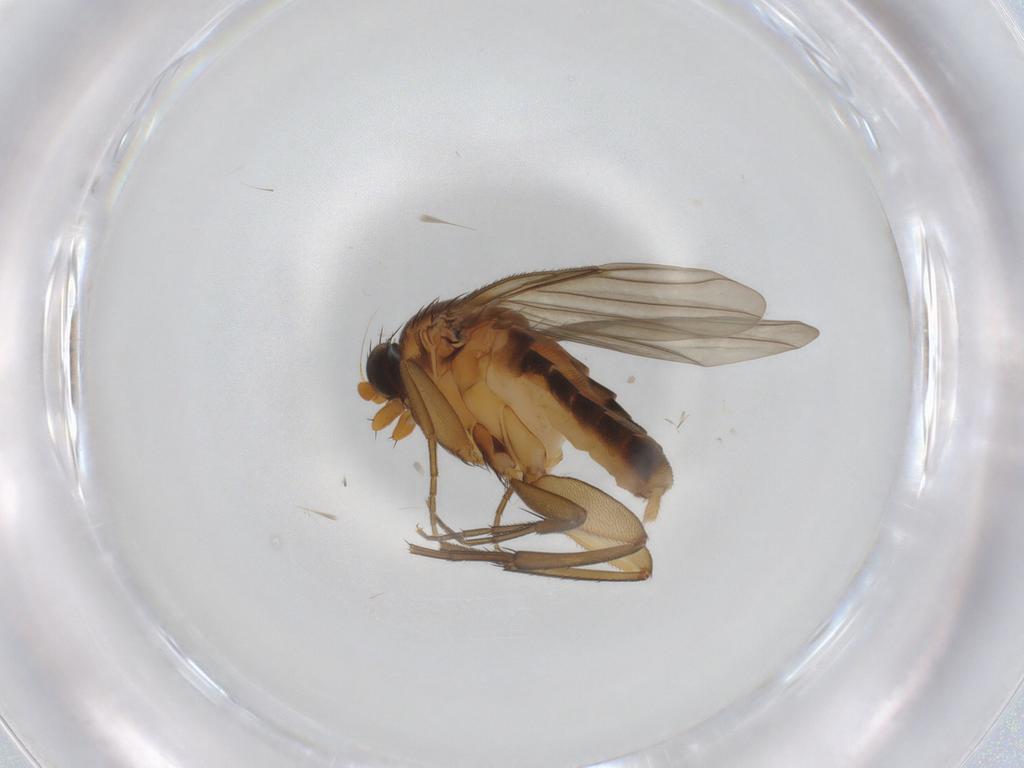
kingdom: Animalia
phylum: Arthropoda
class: Insecta
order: Diptera
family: Phoridae
